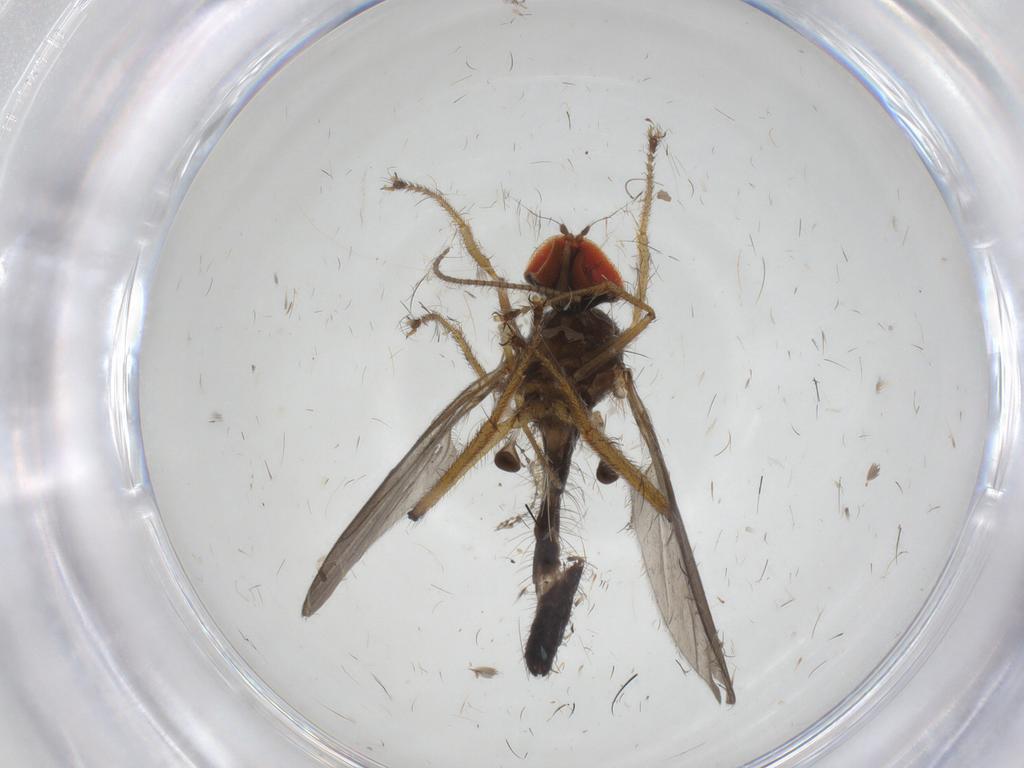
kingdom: Animalia
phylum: Arthropoda
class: Insecta
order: Diptera
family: Hybotidae
